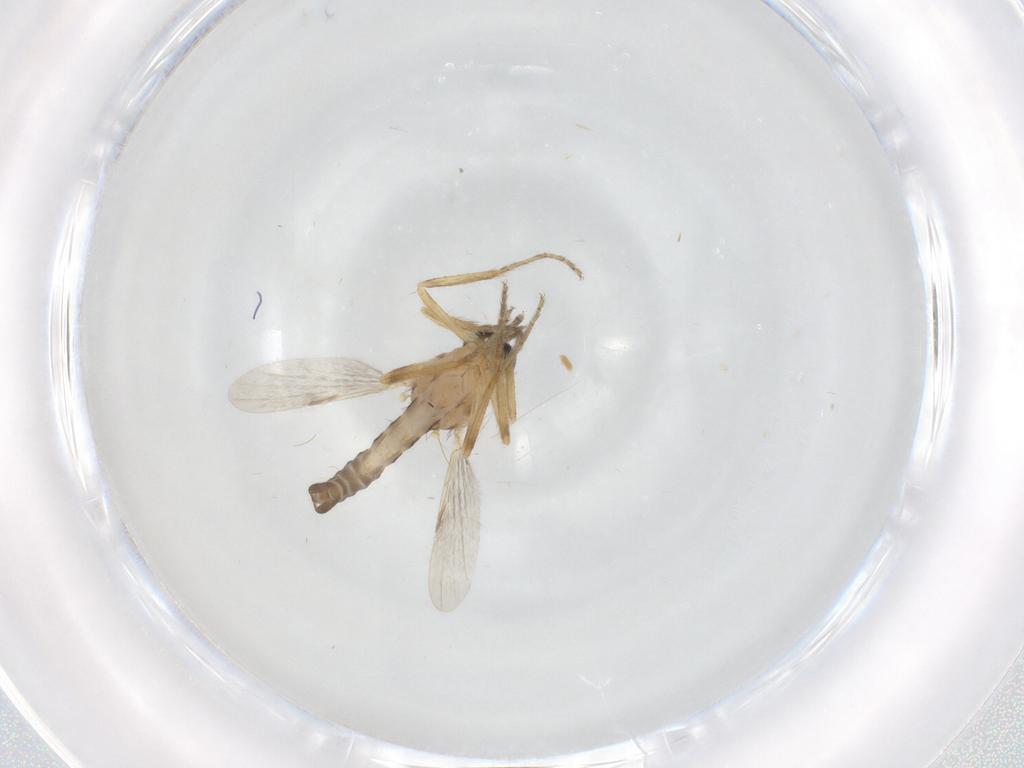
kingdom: Animalia
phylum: Arthropoda
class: Insecta
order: Diptera
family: Ceratopogonidae
